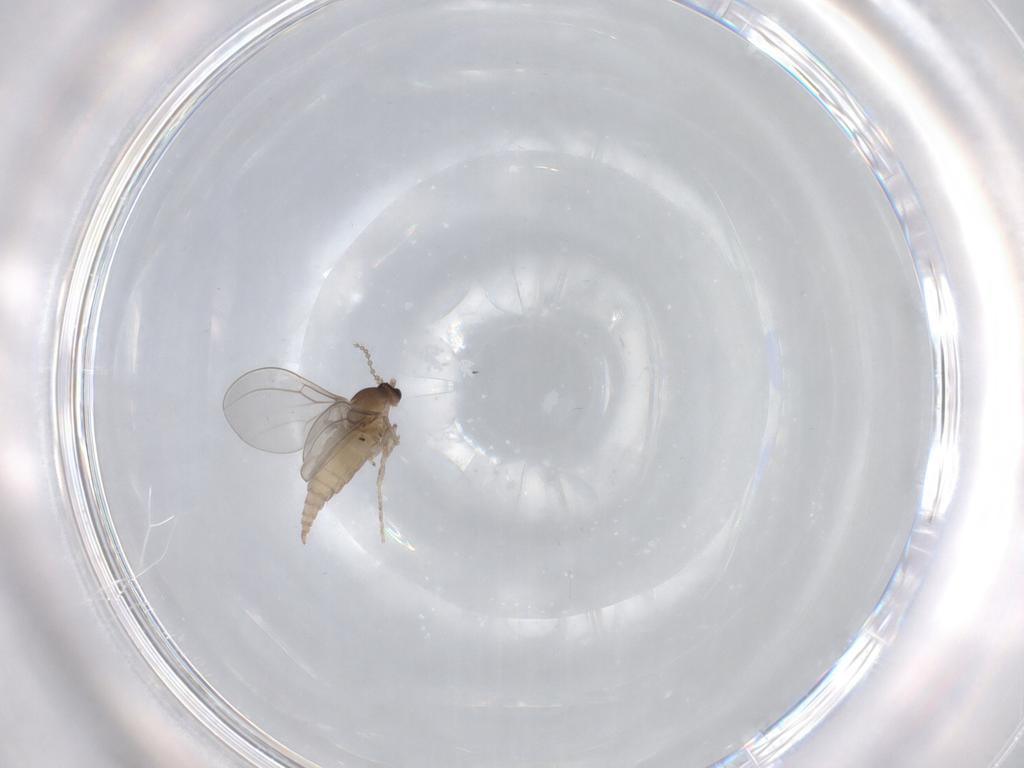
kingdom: Animalia
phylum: Arthropoda
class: Insecta
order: Diptera
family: Cecidomyiidae
